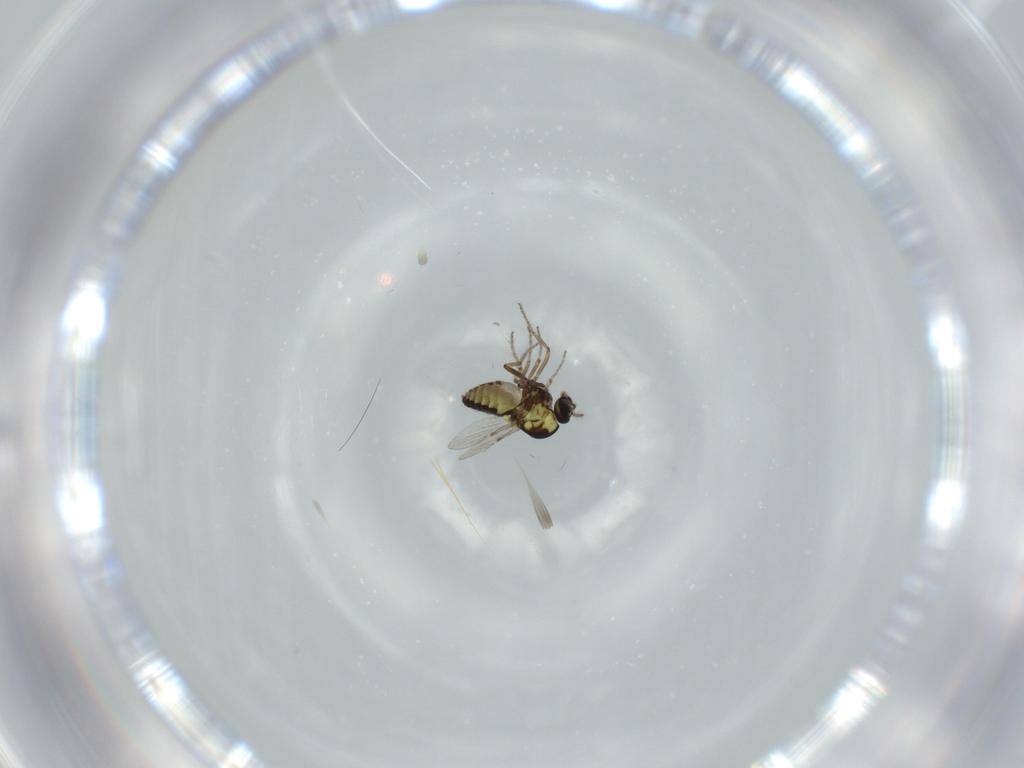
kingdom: Animalia
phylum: Arthropoda
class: Insecta
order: Diptera
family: Ceratopogonidae
